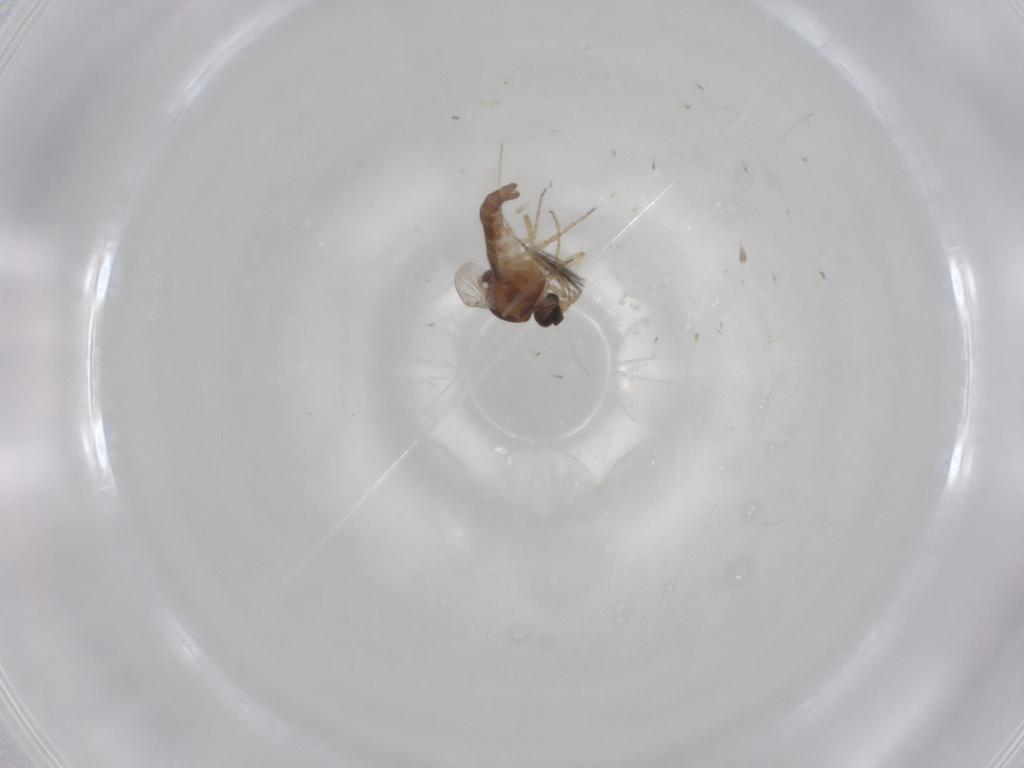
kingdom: Animalia
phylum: Arthropoda
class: Insecta
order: Diptera
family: Ceratopogonidae
